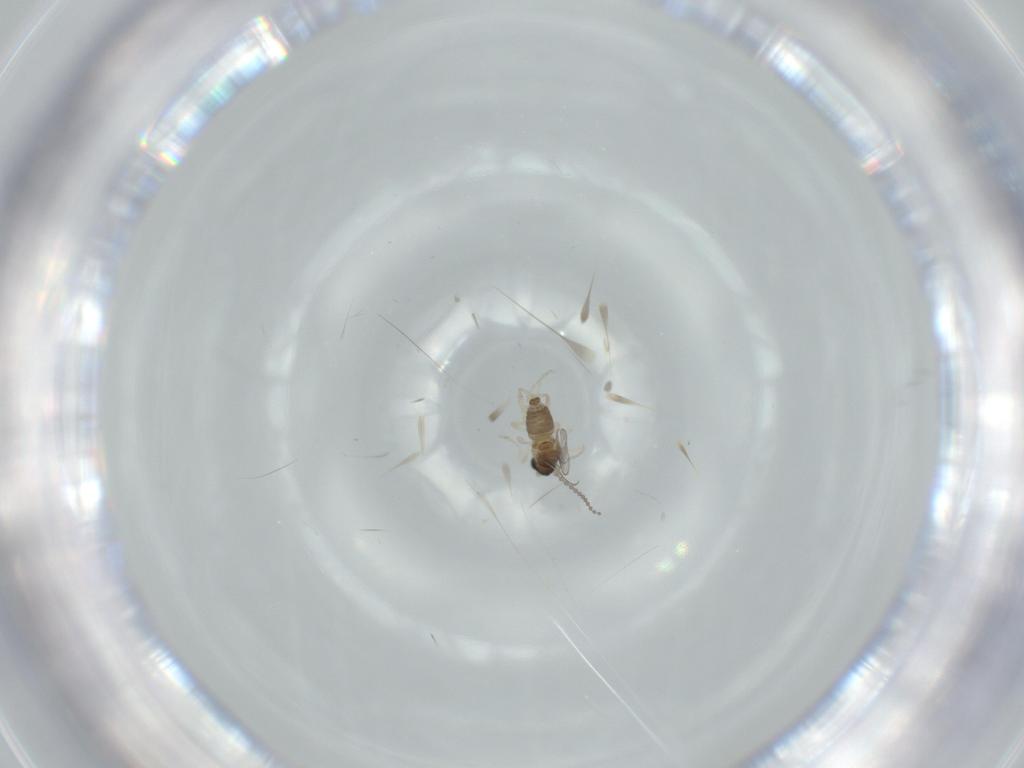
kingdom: Animalia
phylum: Arthropoda
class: Insecta
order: Diptera
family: Cecidomyiidae
